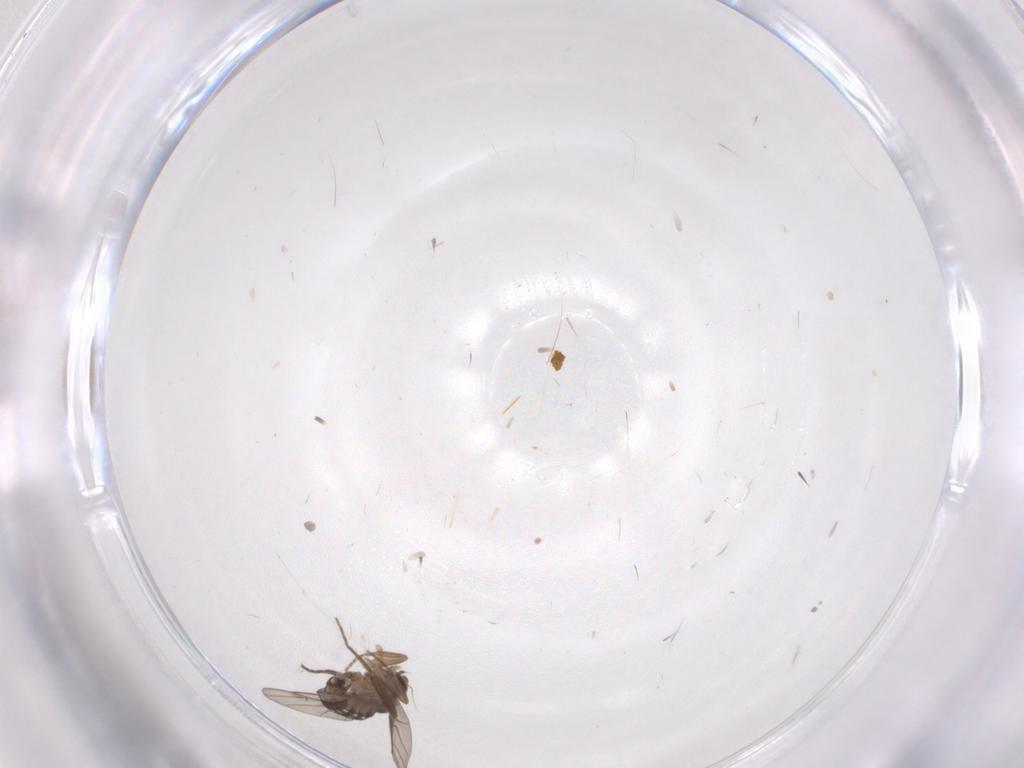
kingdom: Animalia
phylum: Arthropoda
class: Insecta
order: Diptera
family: Phoridae
